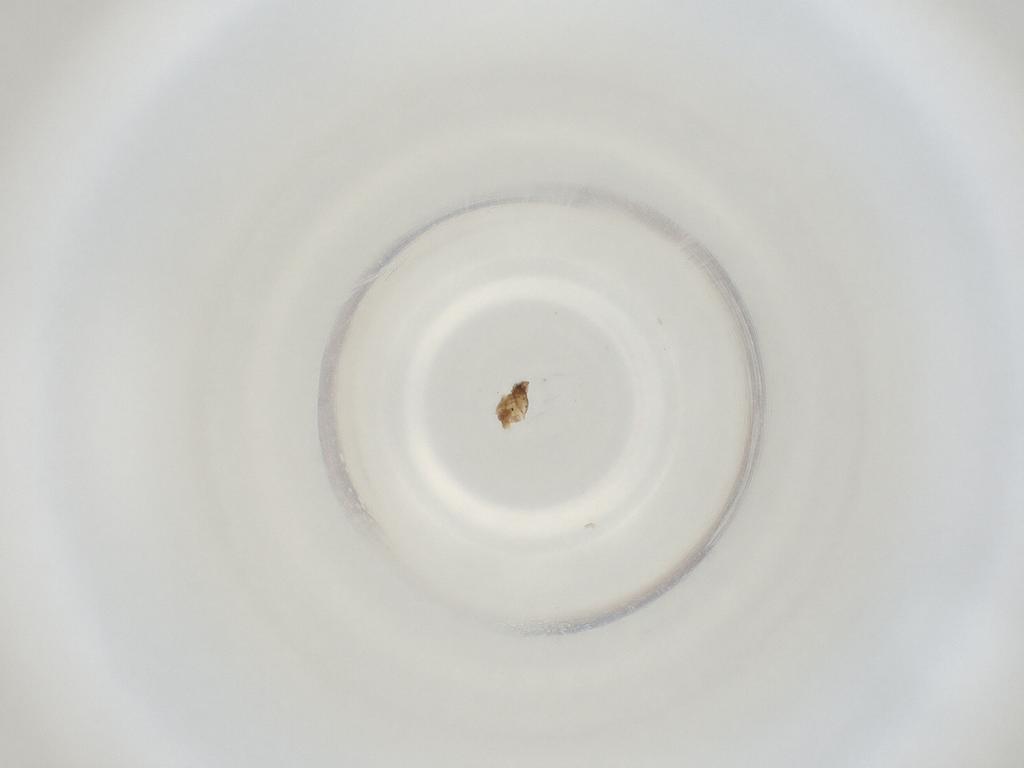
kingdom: Animalia
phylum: Arthropoda
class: Insecta
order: Diptera
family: Cecidomyiidae
